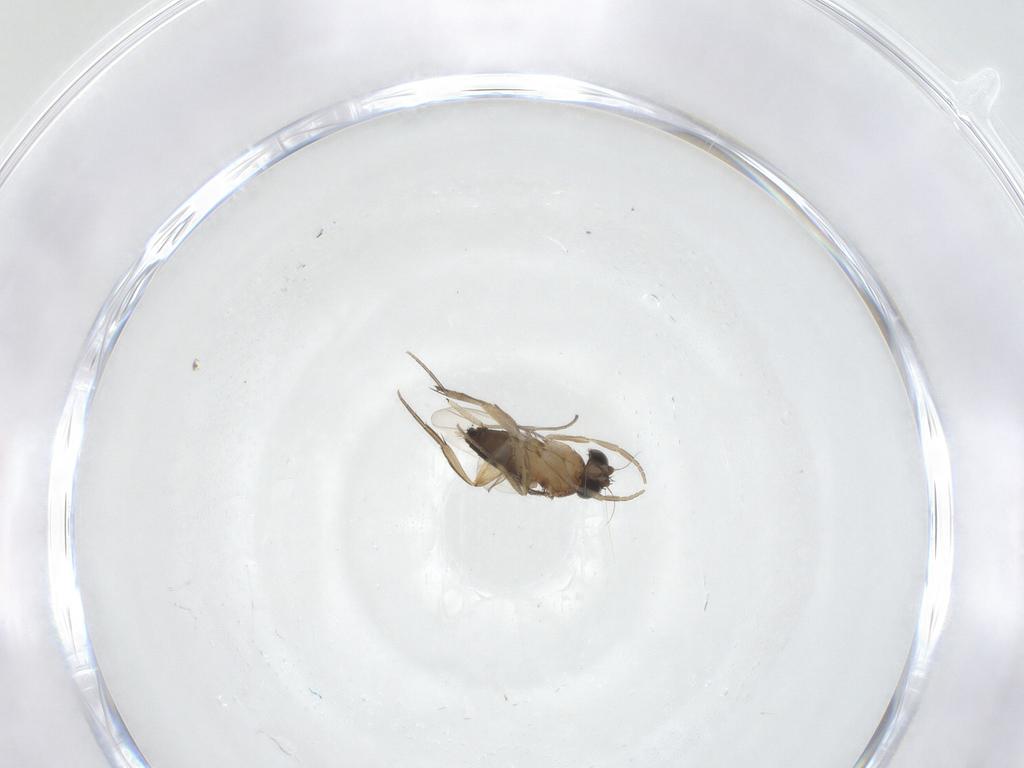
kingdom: Animalia
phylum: Arthropoda
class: Insecta
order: Diptera
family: Phoridae
